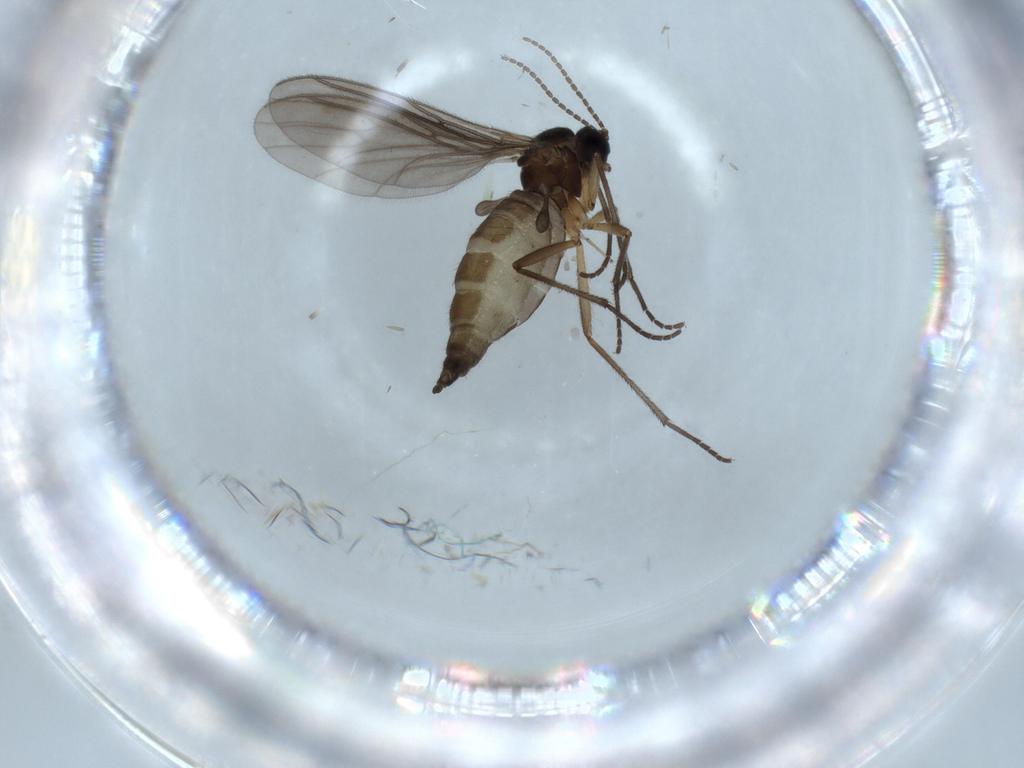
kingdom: Animalia
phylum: Arthropoda
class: Insecta
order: Diptera
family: Sciaridae
